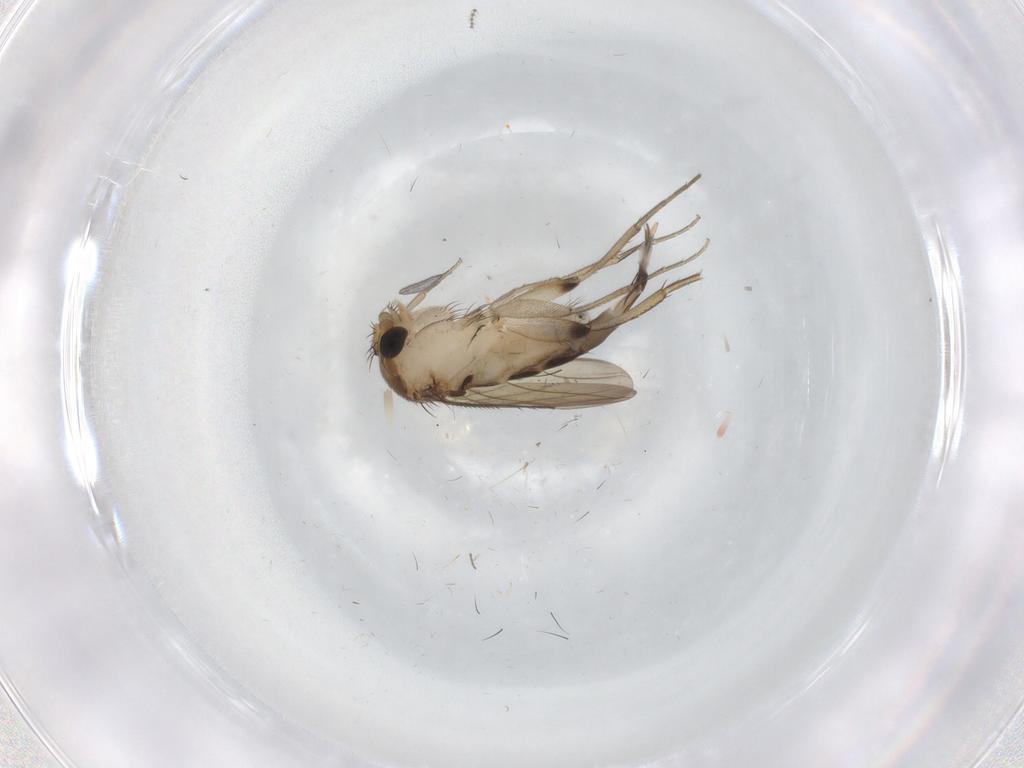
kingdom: Animalia
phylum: Arthropoda
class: Insecta
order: Diptera
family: Phoridae
